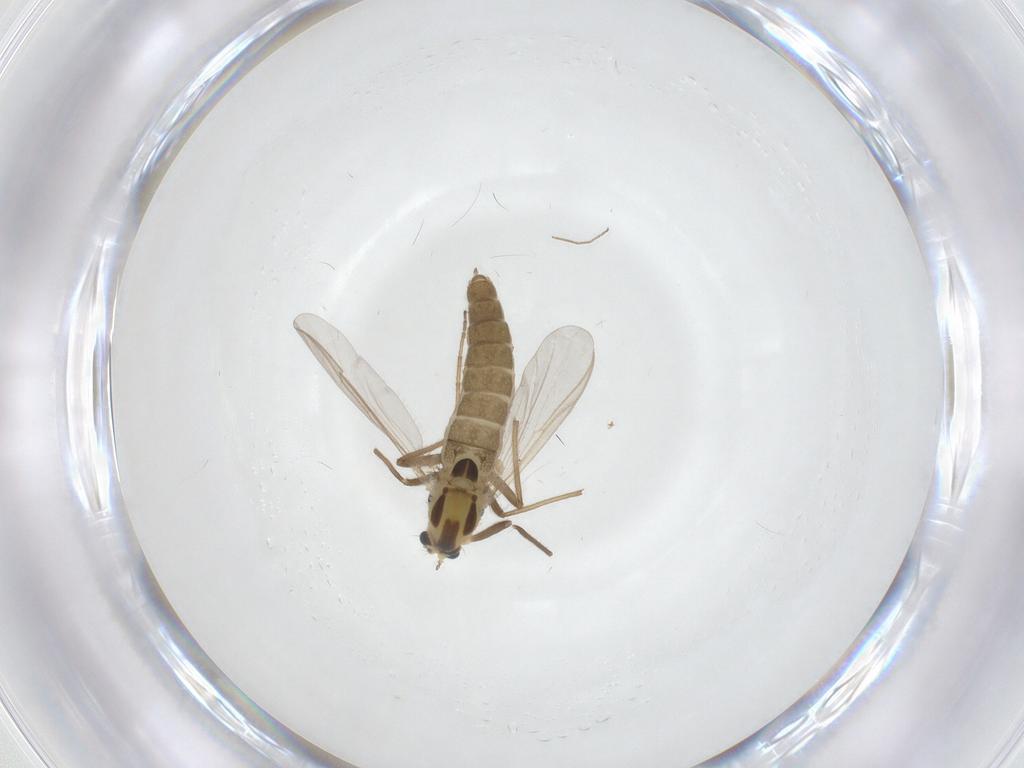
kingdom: Animalia
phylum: Arthropoda
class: Insecta
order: Diptera
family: Chironomidae
